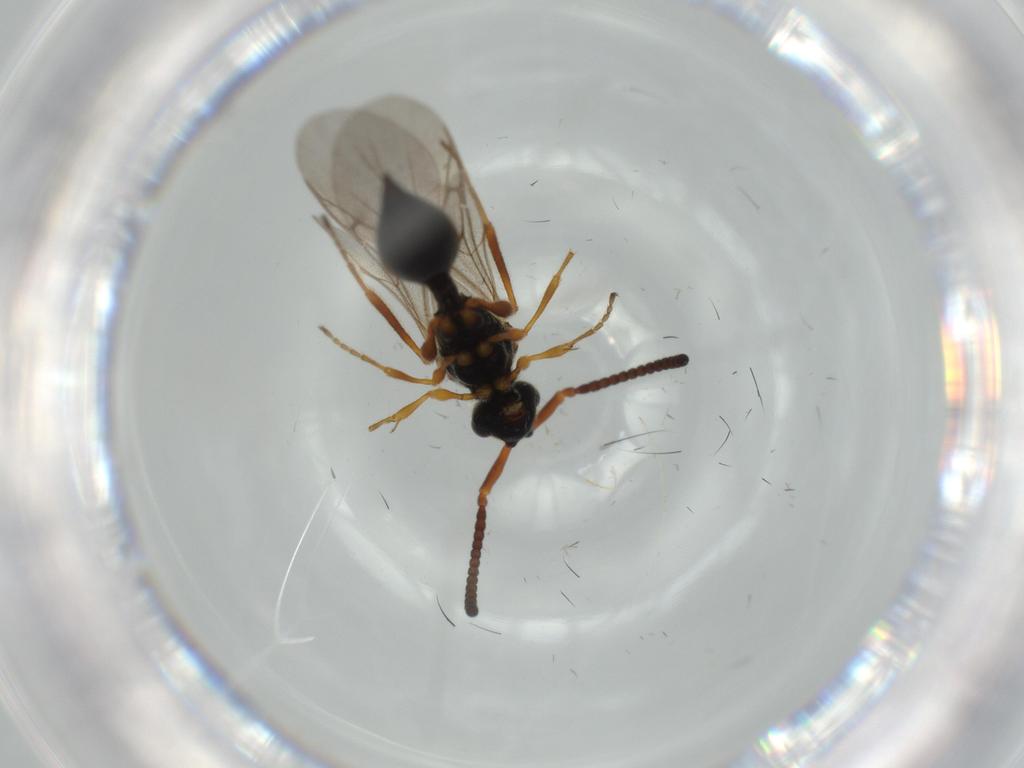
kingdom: Animalia
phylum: Arthropoda
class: Insecta
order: Hymenoptera
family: Diapriidae
